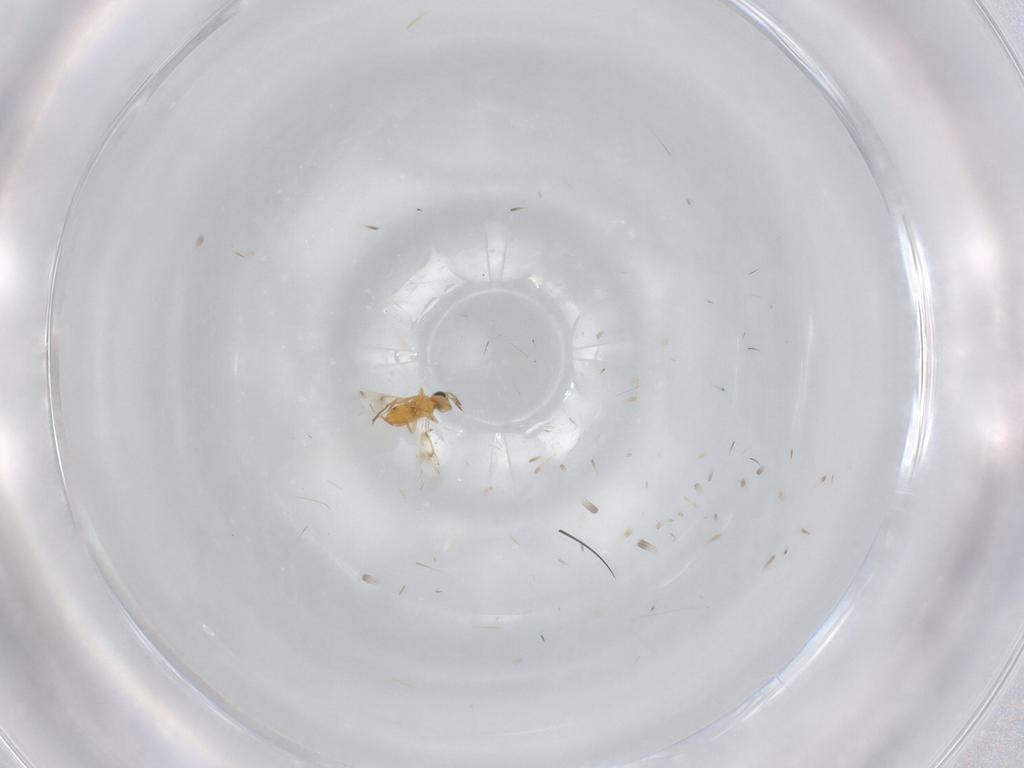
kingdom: Animalia
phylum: Arthropoda
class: Insecta
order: Hymenoptera
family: Aphelinidae
